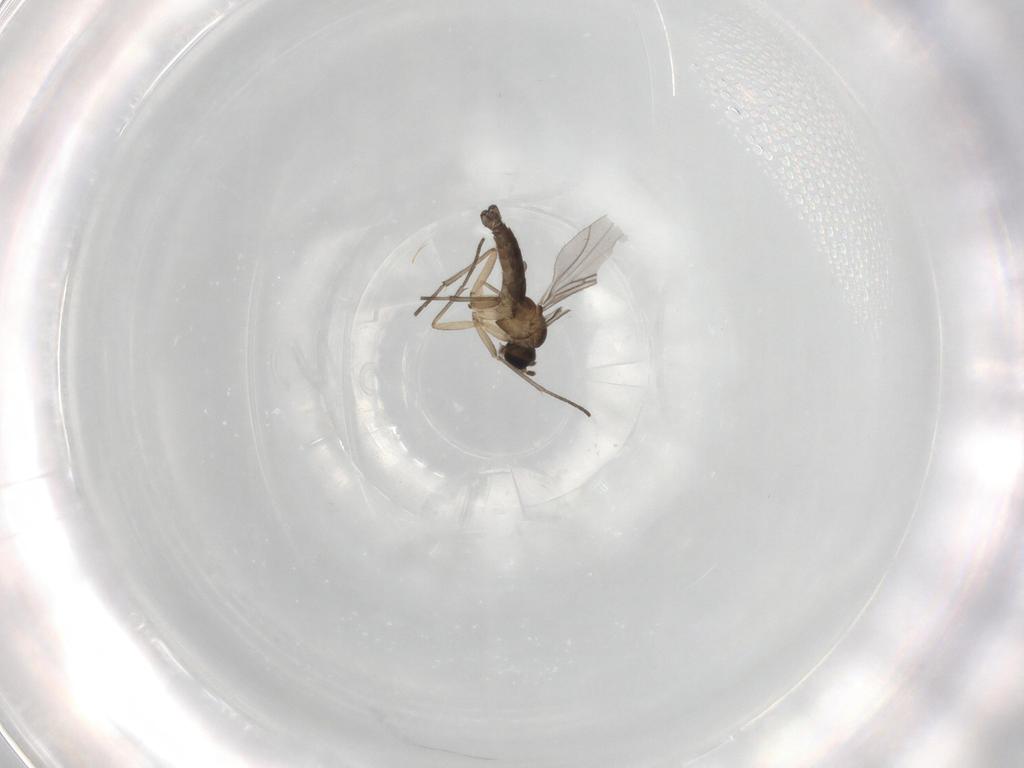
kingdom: Animalia
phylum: Arthropoda
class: Insecta
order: Diptera
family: Sciaridae
